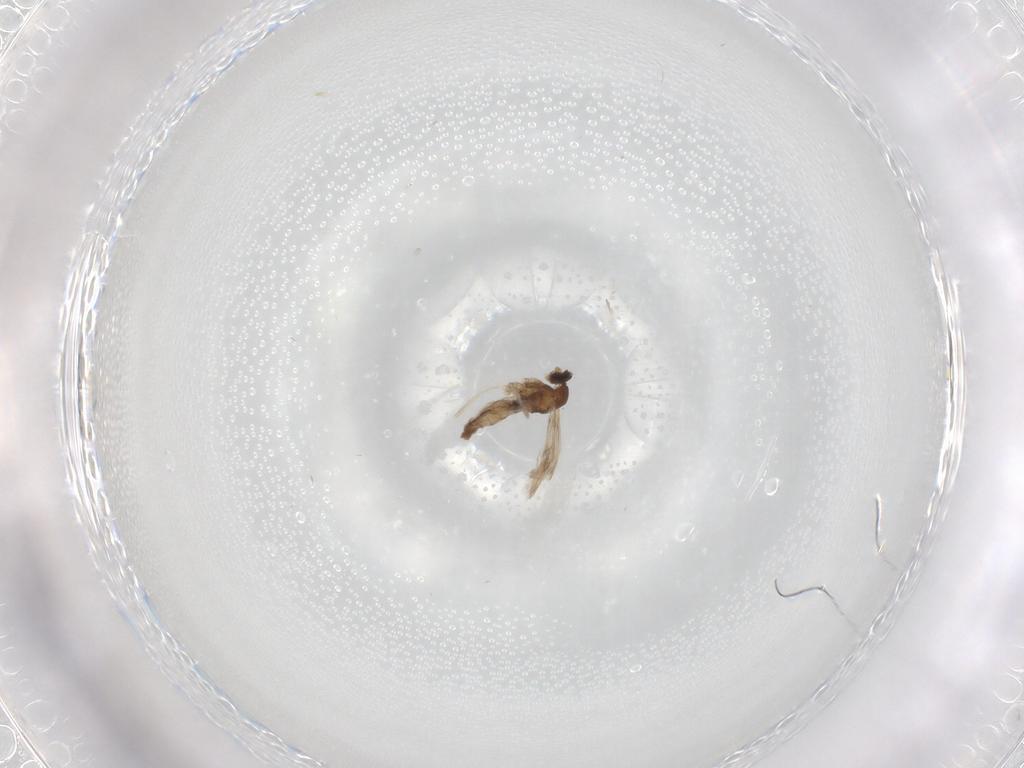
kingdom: Animalia
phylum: Arthropoda
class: Insecta
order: Diptera
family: Cecidomyiidae
